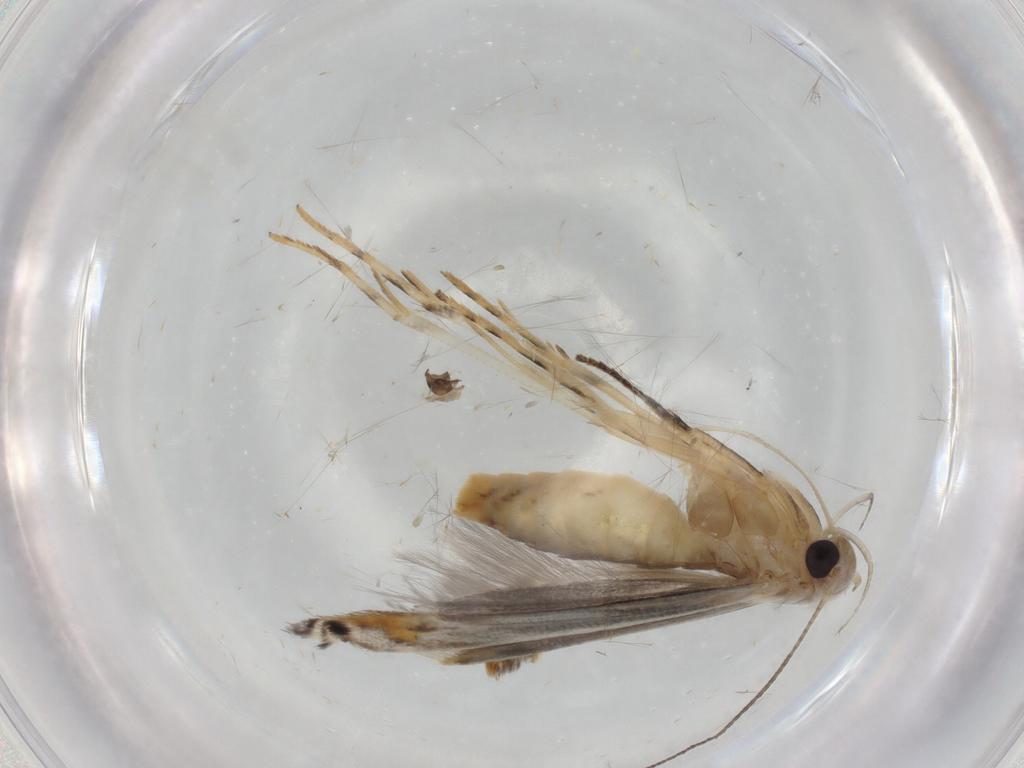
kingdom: Animalia
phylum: Arthropoda
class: Insecta
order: Lepidoptera
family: Gelechiidae
